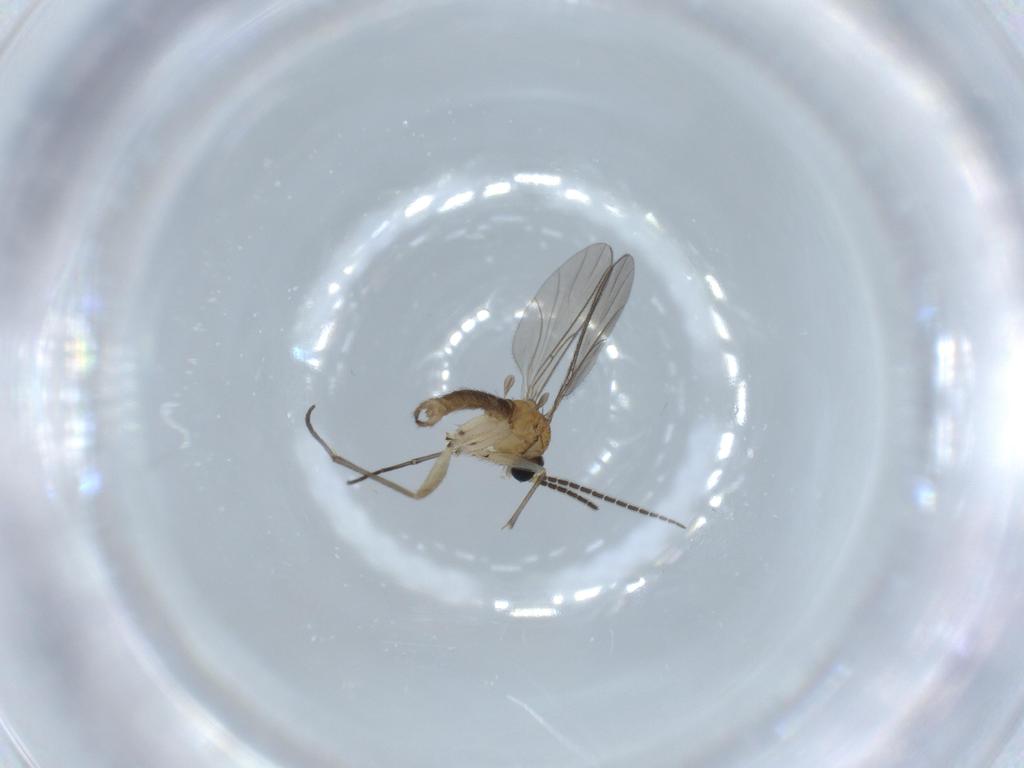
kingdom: Animalia
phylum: Arthropoda
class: Insecta
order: Diptera
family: Sciaridae
